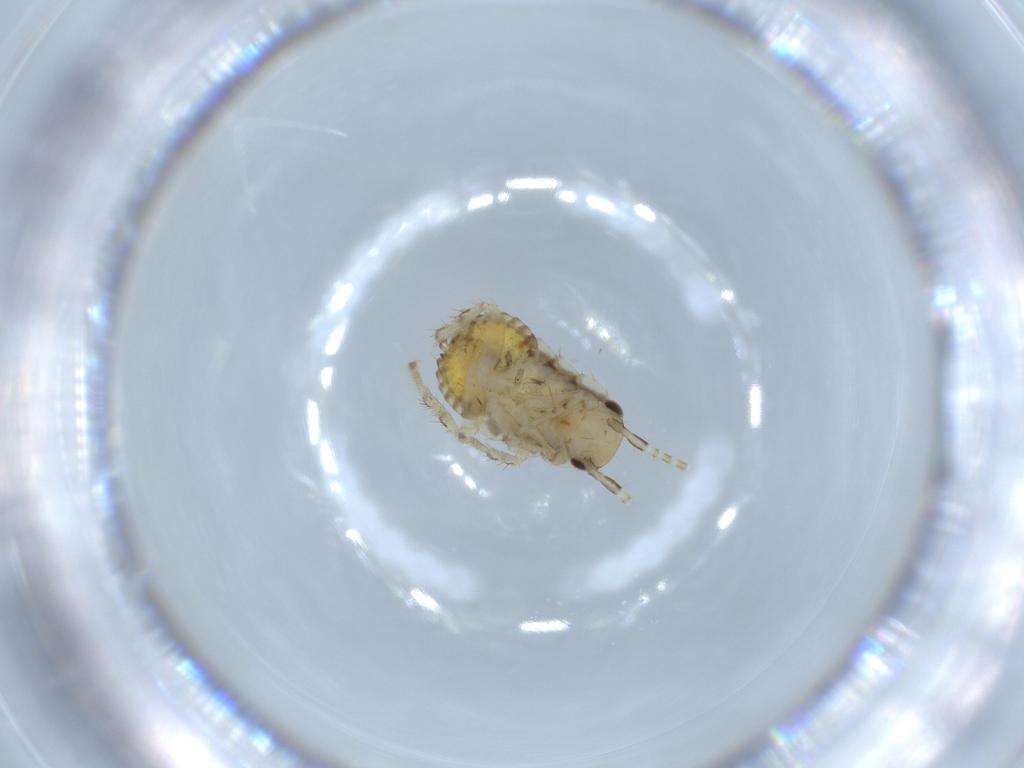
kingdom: Animalia
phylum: Arthropoda
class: Insecta
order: Blattodea
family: Ectobiidae
